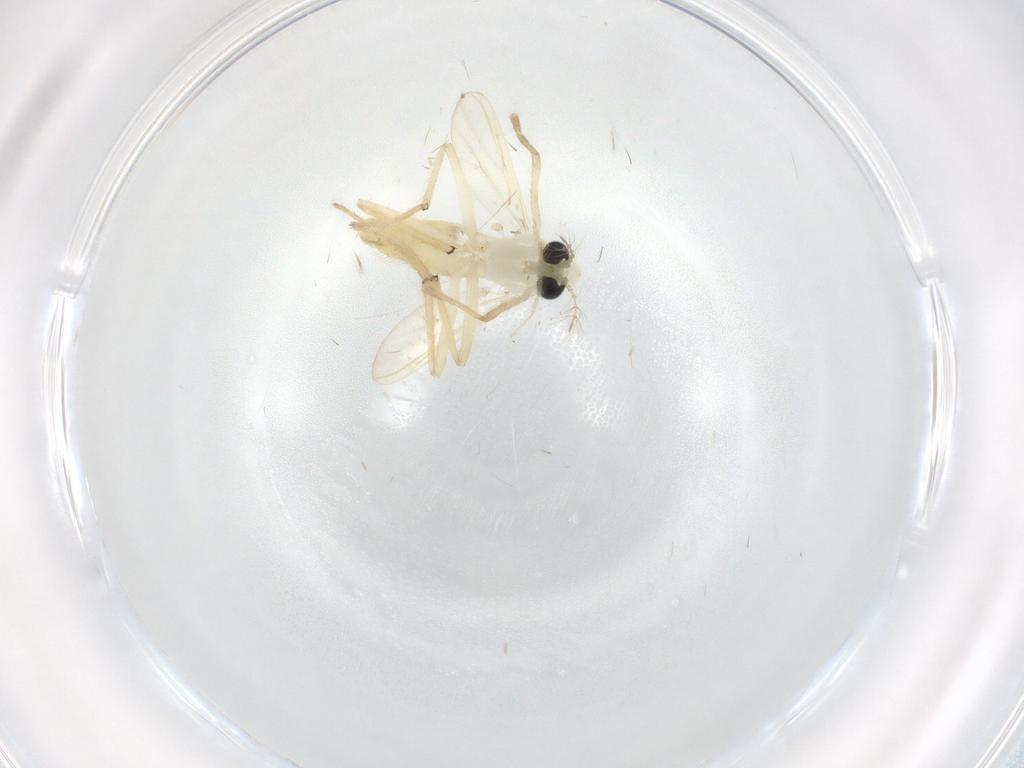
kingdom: Animalia
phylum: Arthropoda
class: Insecta
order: Diptera
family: Chironomidae
